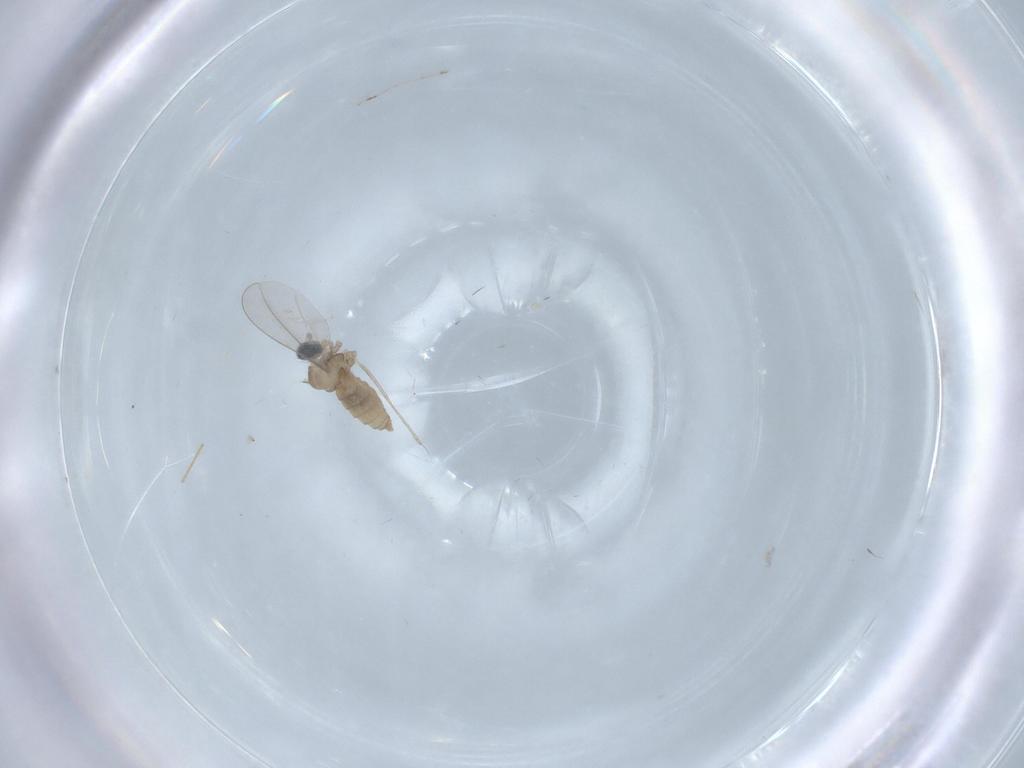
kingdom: Animalia
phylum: Arthropoda
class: Insecta
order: Diptera
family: Cecidomyiidae
